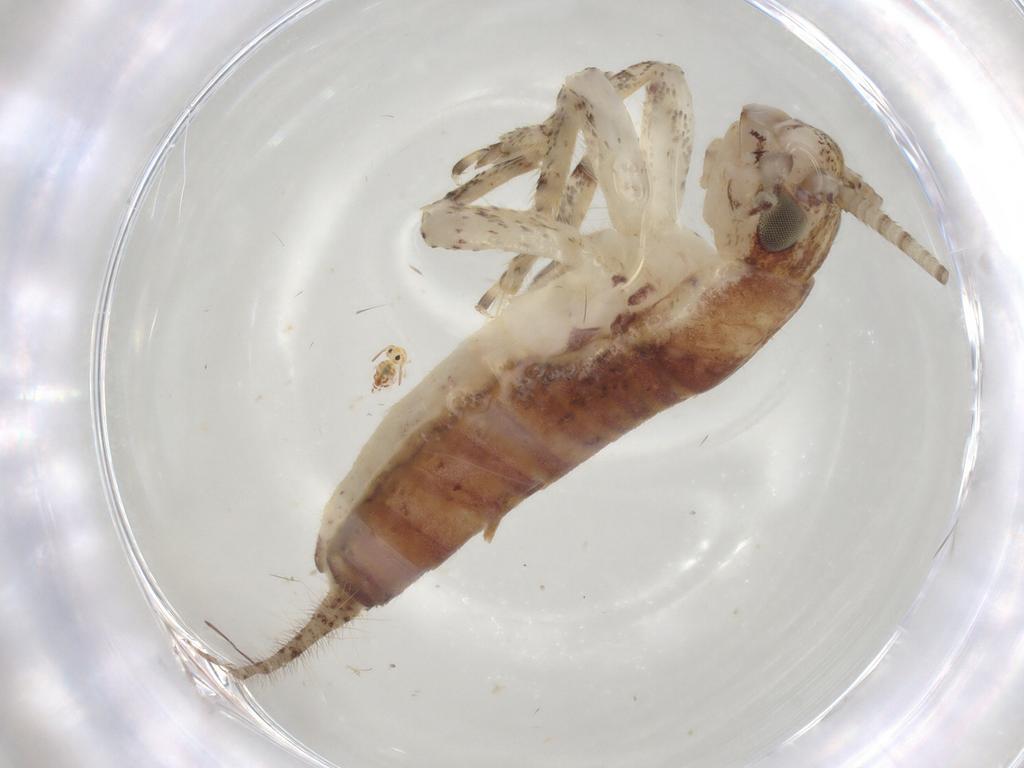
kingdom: Animalia
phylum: Arthropoda
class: Insecta
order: Orthoptera
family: Mogoplistidae
